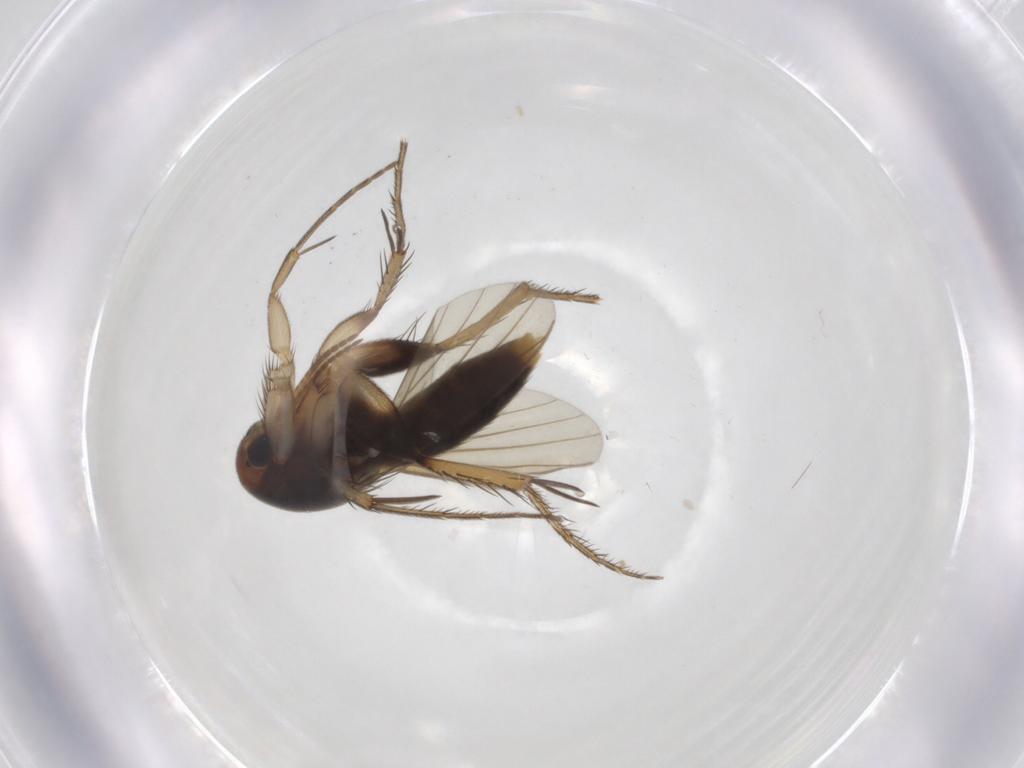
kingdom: Animalia
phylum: Arthropoda
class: Insecta
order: Diptera
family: Mycetophilidae
